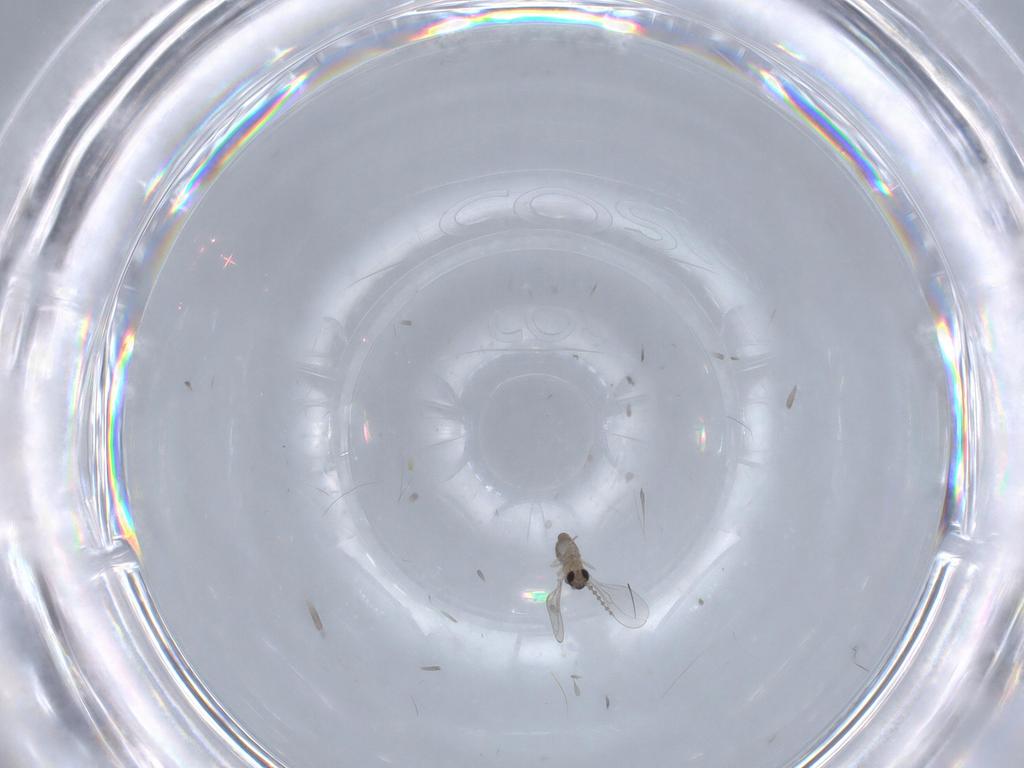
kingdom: Animalia
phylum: Arthropoda
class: Insecta
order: Diptera
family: Cecidomyiidae
